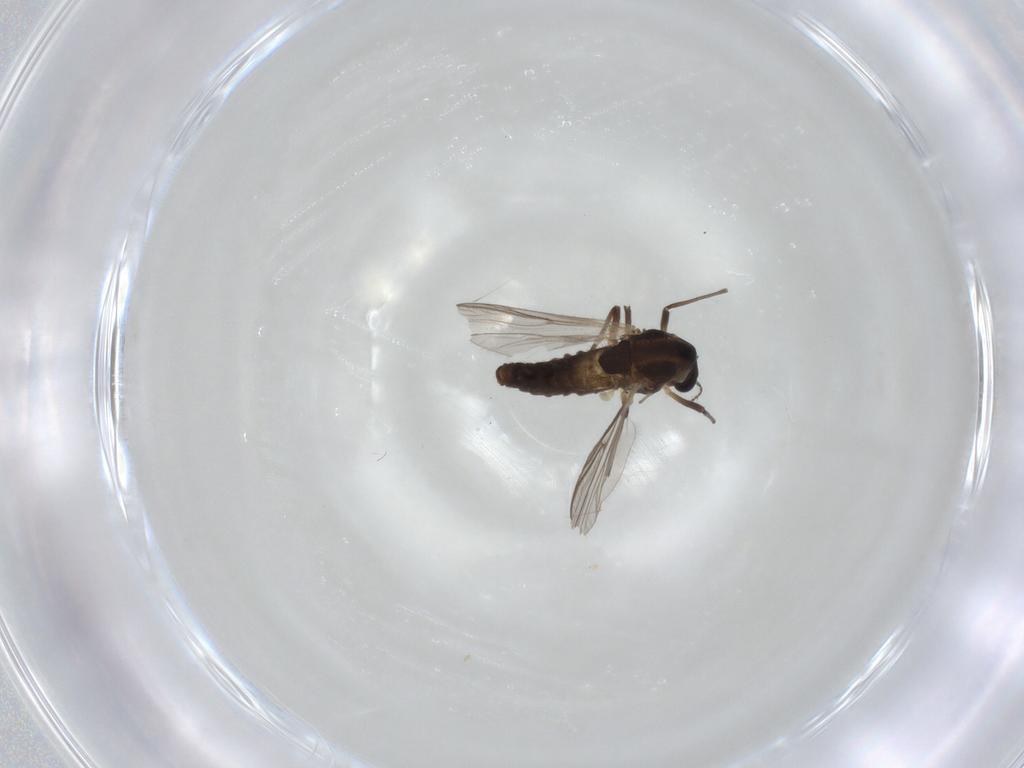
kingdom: Animalia
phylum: Arthropoda
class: Insecta
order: Diptera
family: Chironomidae
